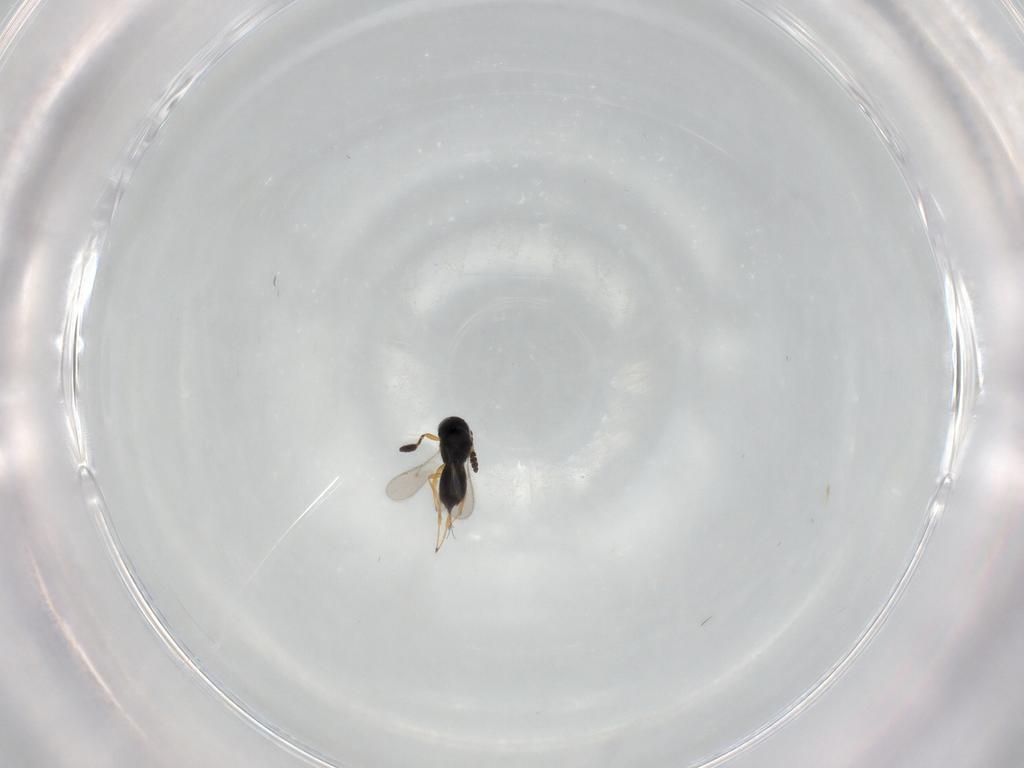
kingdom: Animalia
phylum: Arthropoda
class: Insecta
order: Hymenoptera
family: Scelionidae
